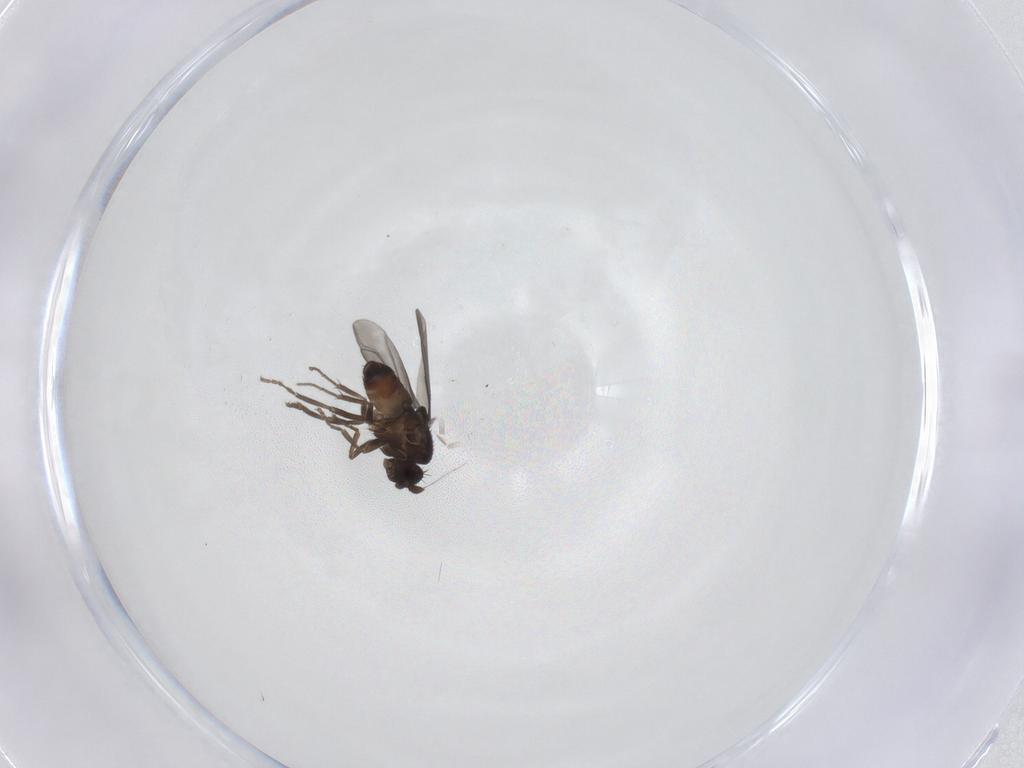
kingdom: Animalia
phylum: Arthropoda
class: Insecta
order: Diptera
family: Sphaeroceridae
